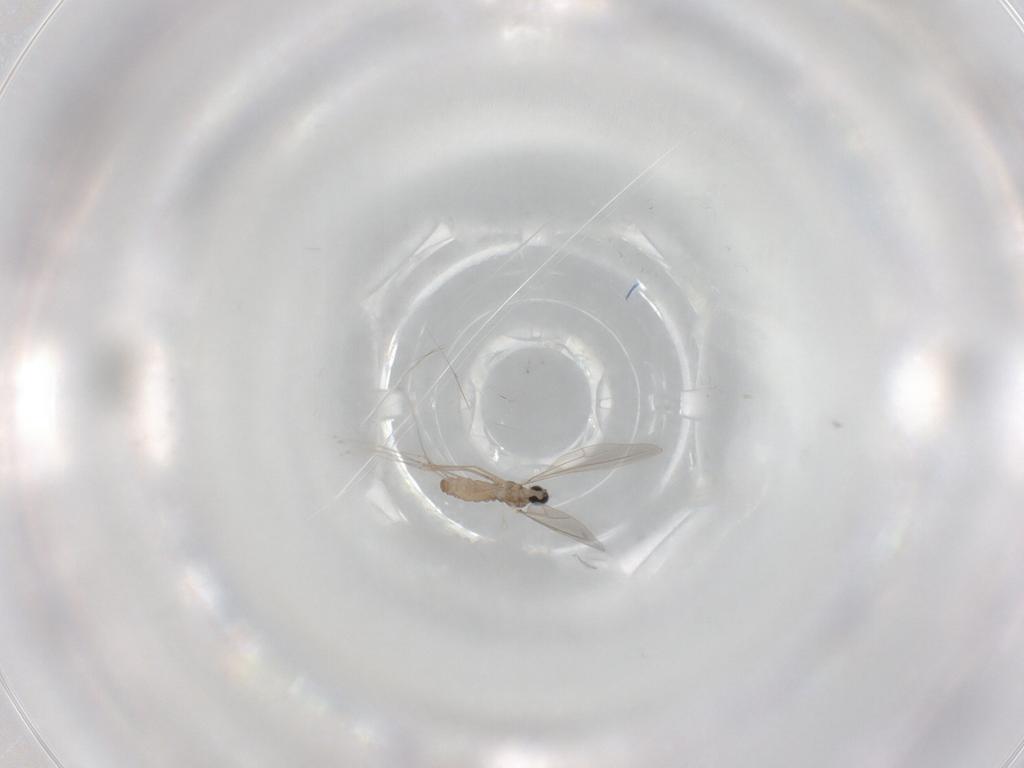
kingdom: Animalia
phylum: Arthropoda
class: Insecta
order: Diptera
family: Cecidomyiidae
